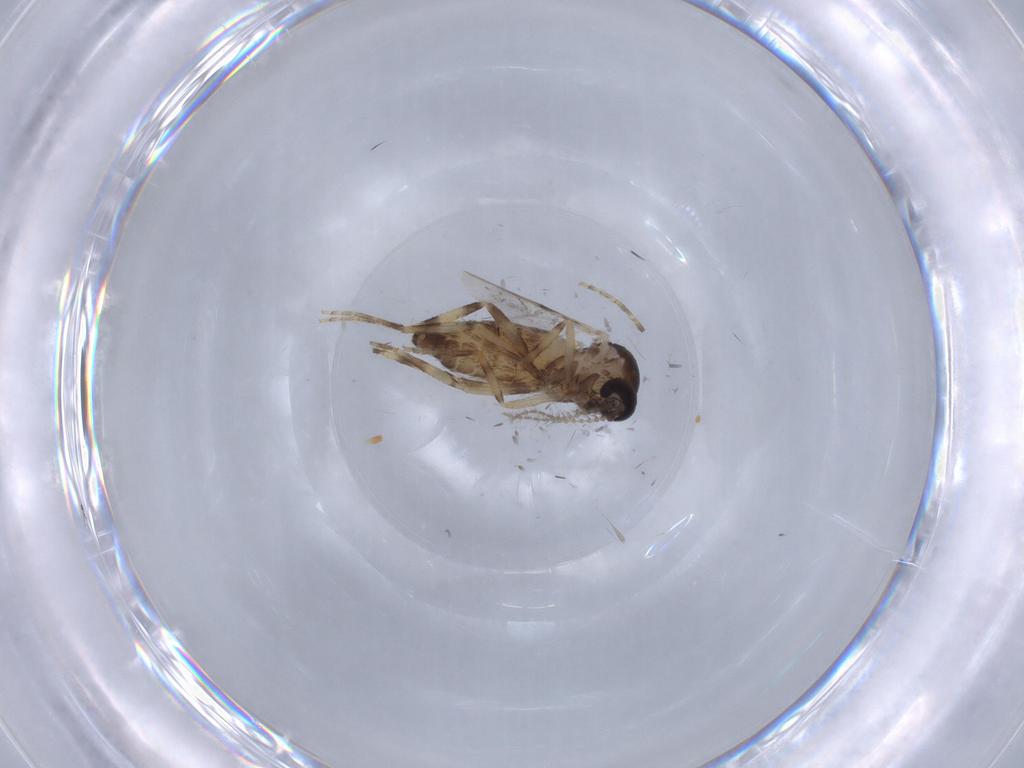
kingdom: Animalia
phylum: Arthropoda
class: Insecta
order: Diptera
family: Ceratopogonidae
